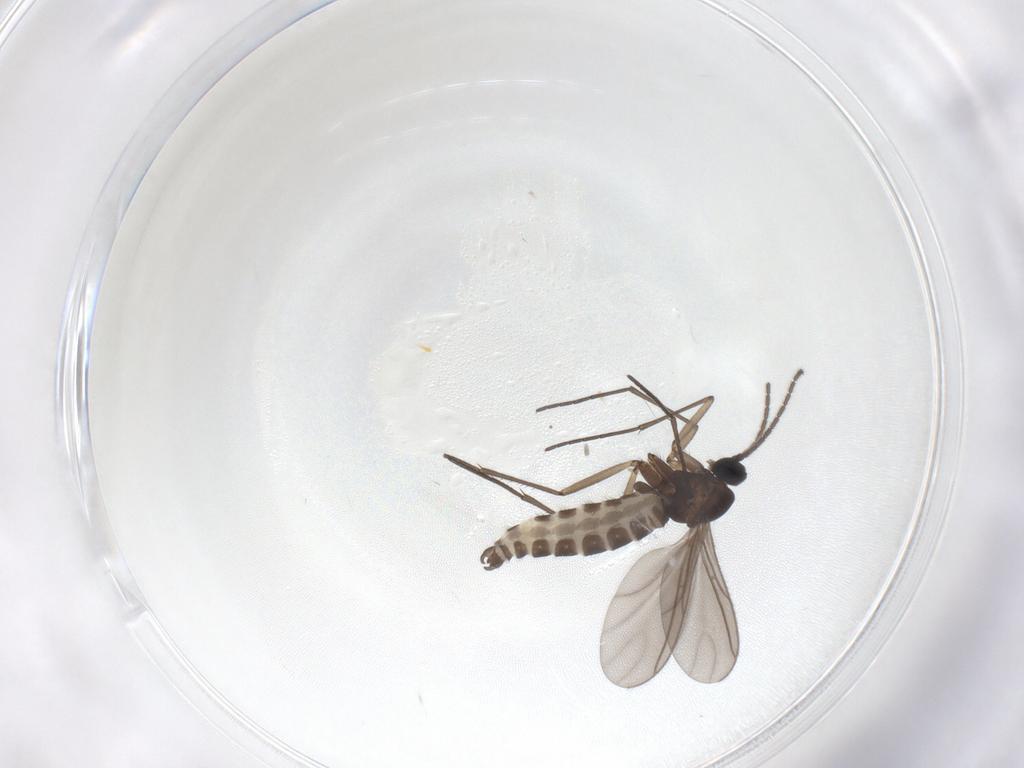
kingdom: Animalia
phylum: Arthropoda
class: Insecta
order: Diptera
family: Sciaridae
